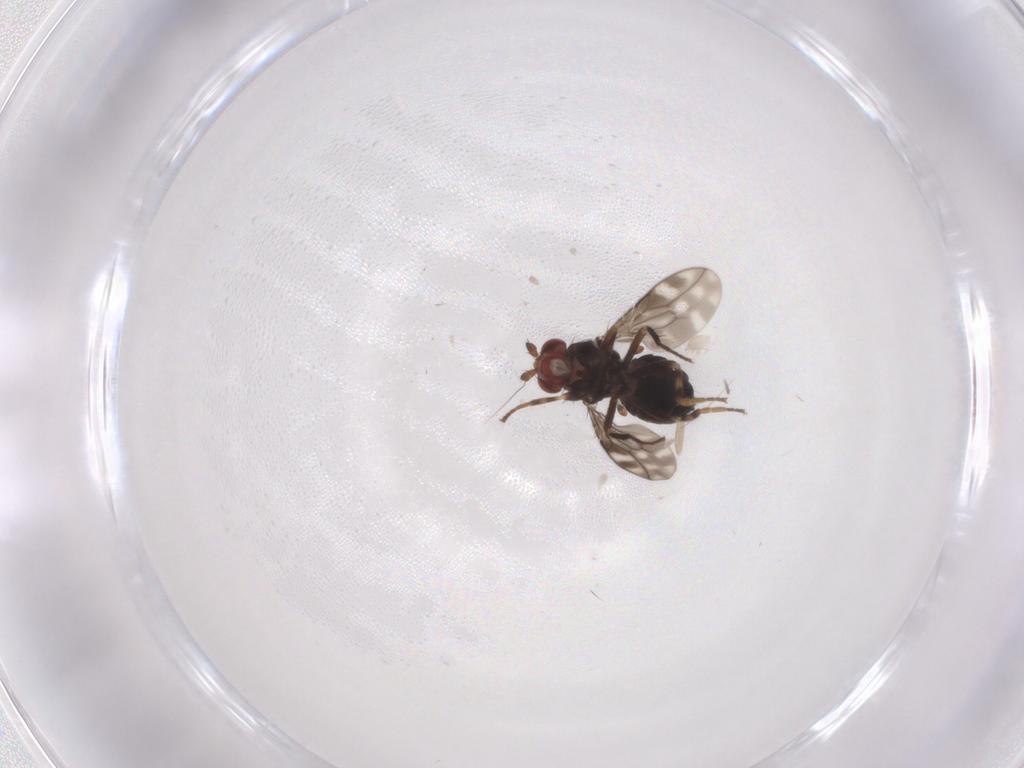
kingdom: Animalia
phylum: Arthropoda
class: Insecta
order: Diptera
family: Sphaeroceridae
